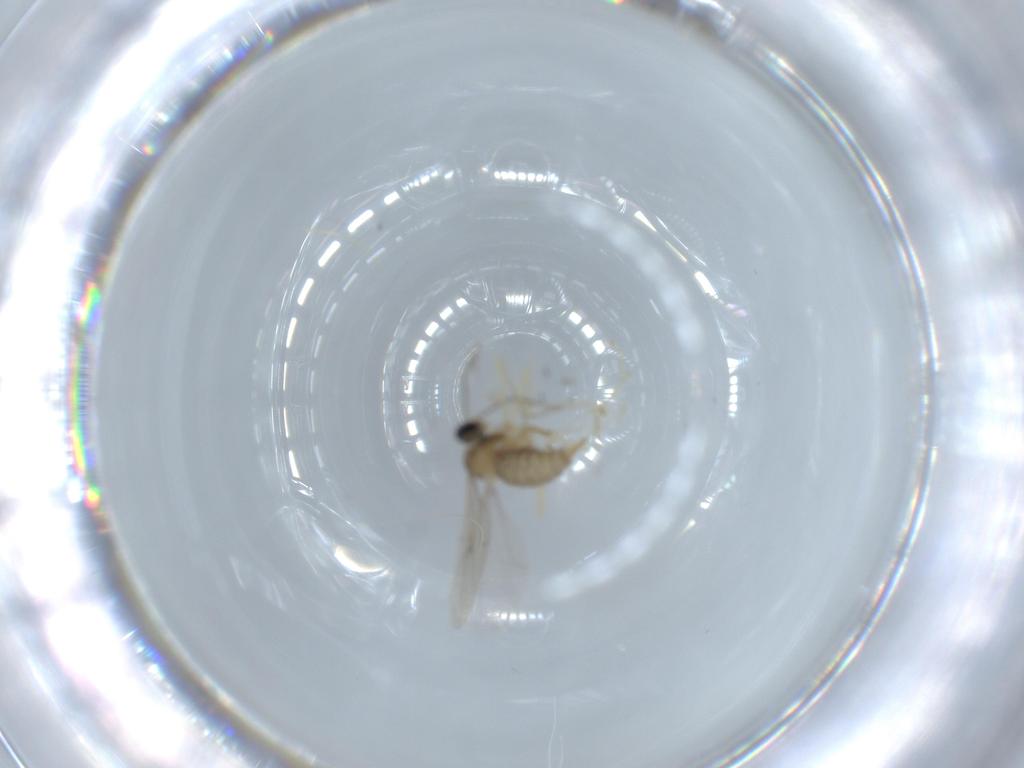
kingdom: Animalia
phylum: Arthropoda
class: Insecta
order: Diptera
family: Cecidomyiidae
